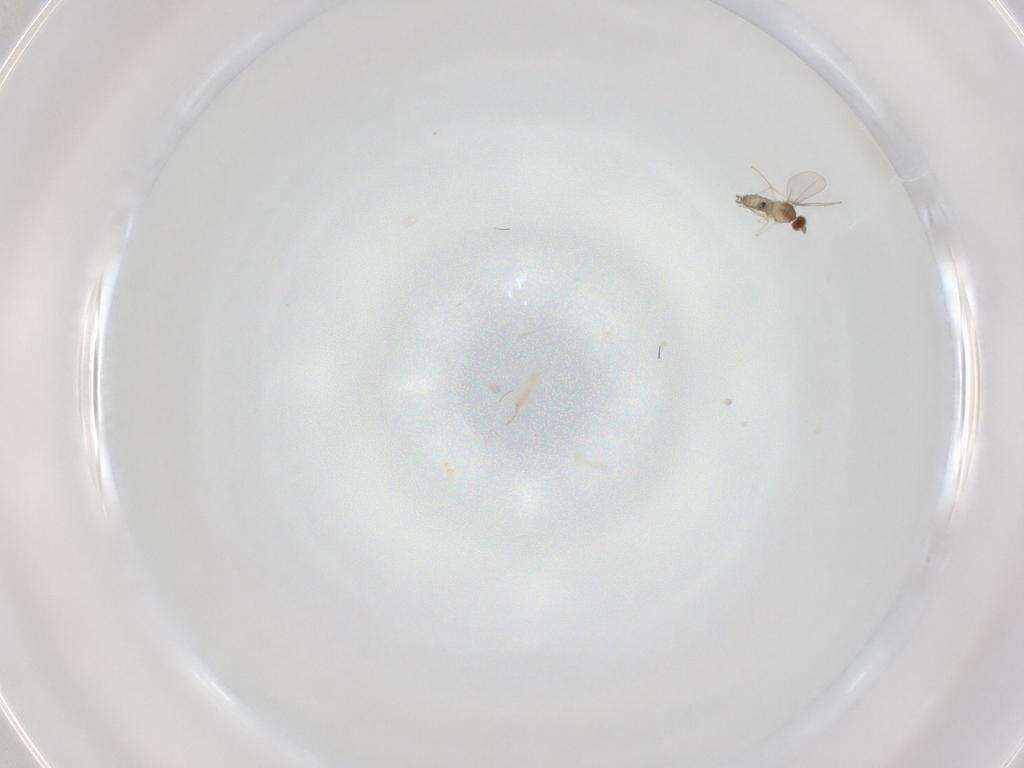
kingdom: Animalia
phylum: Arthropoda
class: Insecta
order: Diptera
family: Cecidomyiidae
